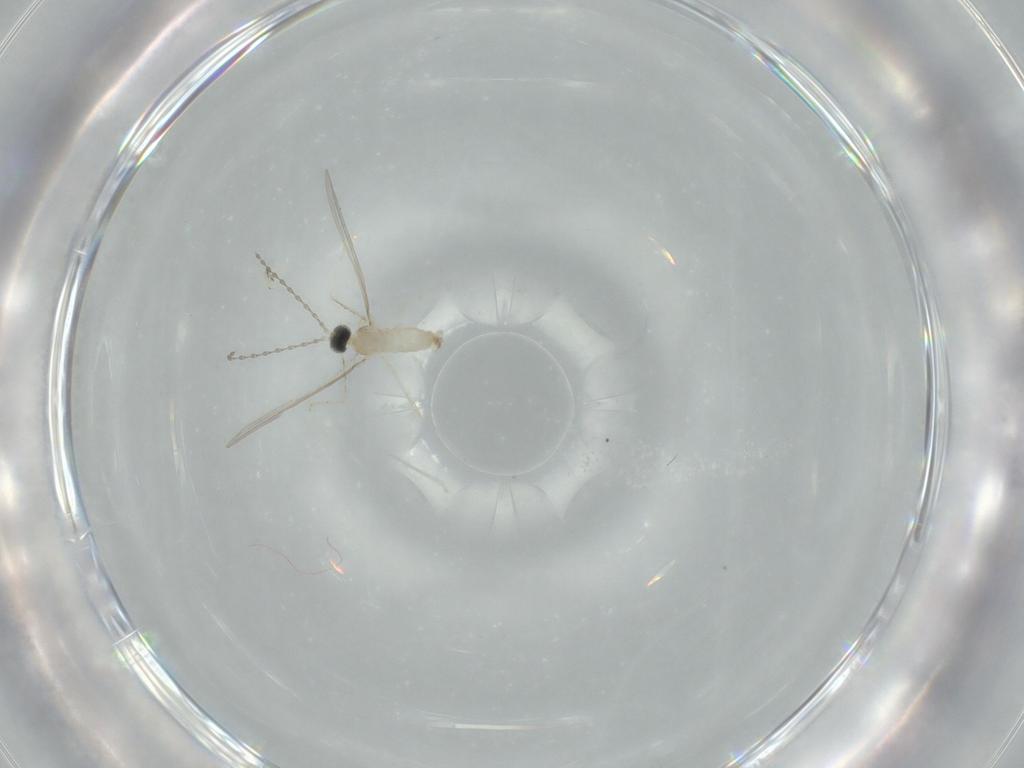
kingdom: Animalia
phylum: Arthropoda
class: Insecta
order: Diptera
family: Cecidomyiidae
